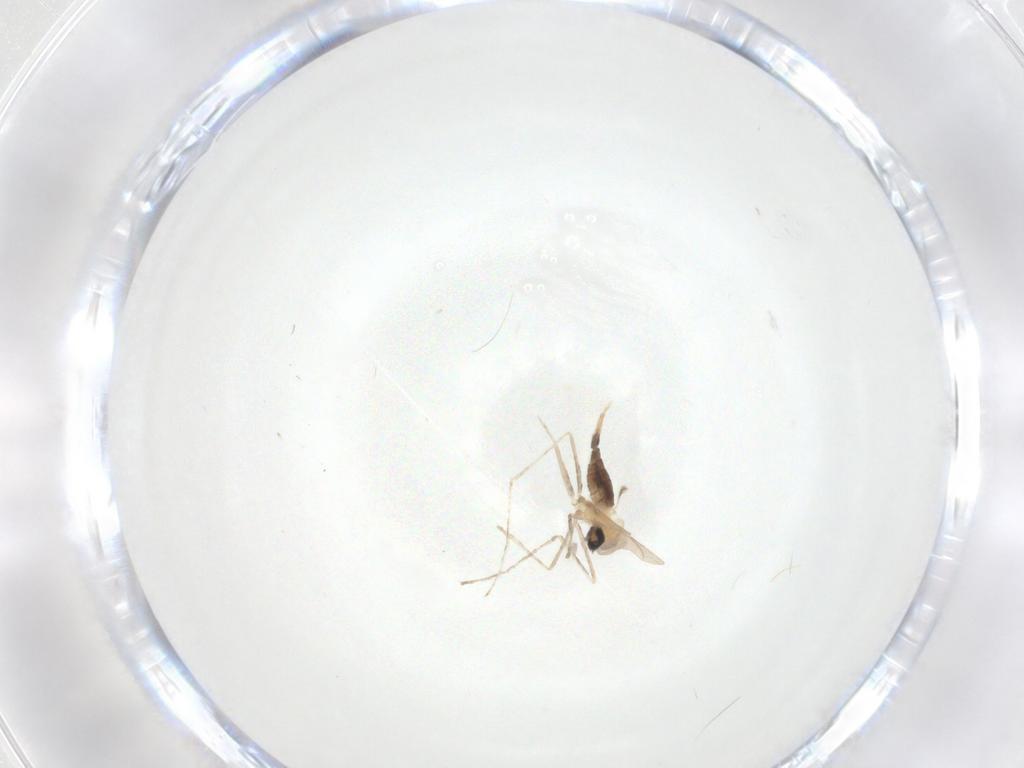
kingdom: Animalia
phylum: Arthropoda
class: Insecta
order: Diptera
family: Cecidomyiidae
